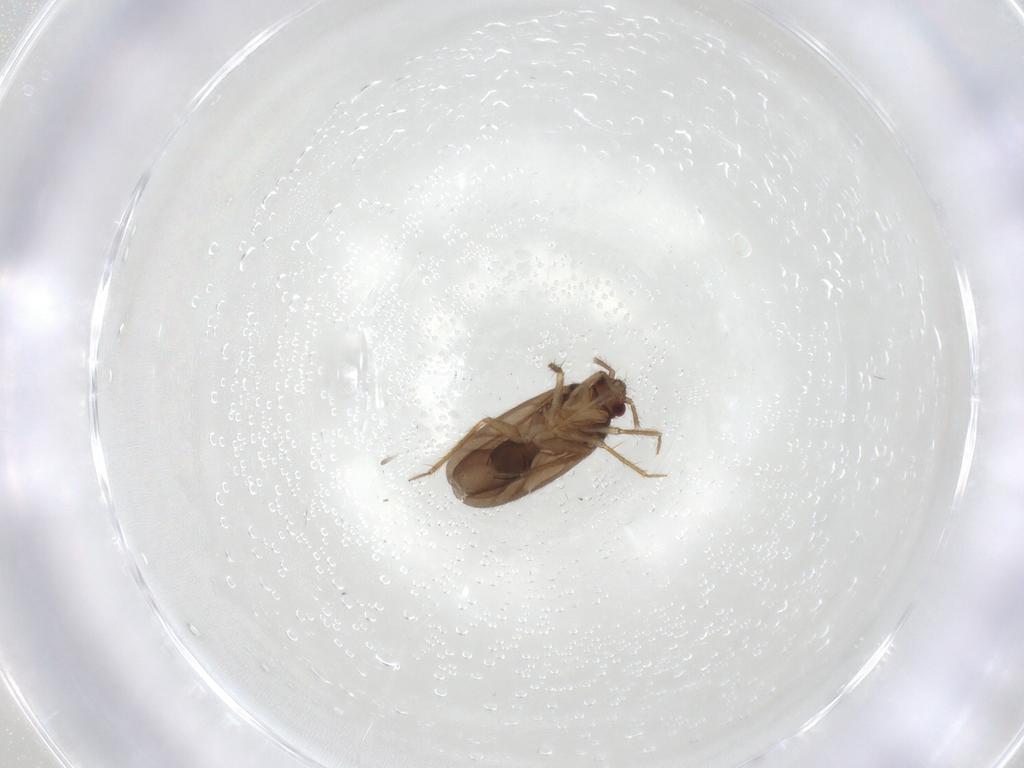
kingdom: Animalia
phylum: Arthropoda
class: Insecta
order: Hemiptera
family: Ceratocombidae
